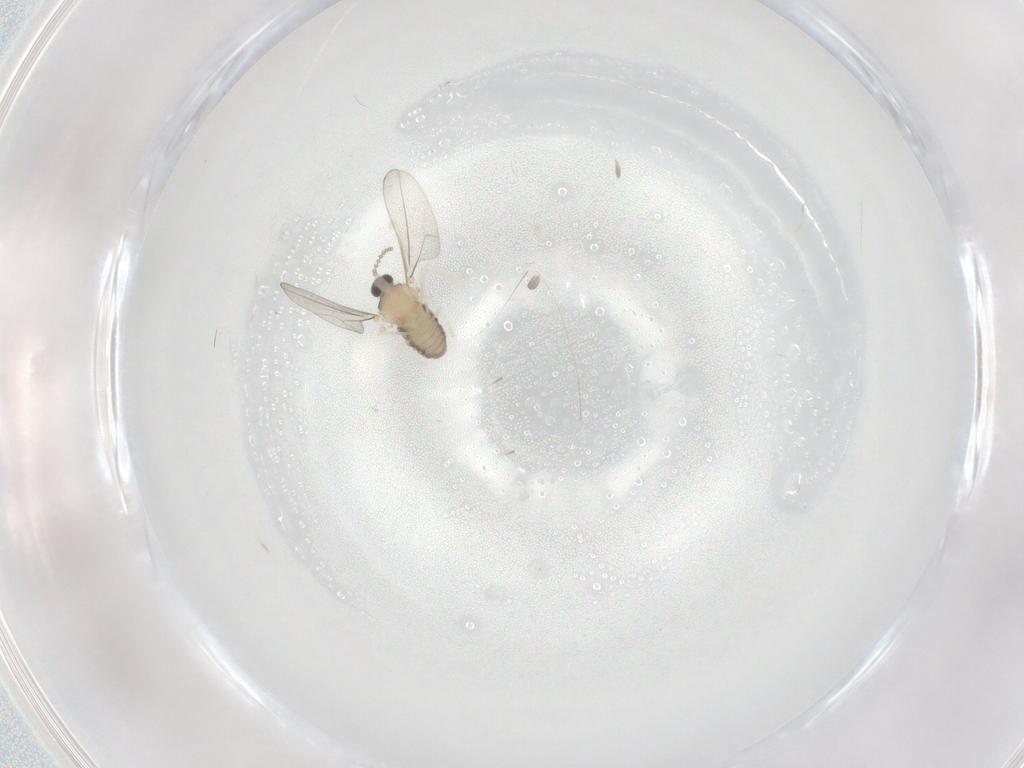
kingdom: Animalia
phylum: Arthropoda
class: Insecta
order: Diptera
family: Cecidomyiidae
